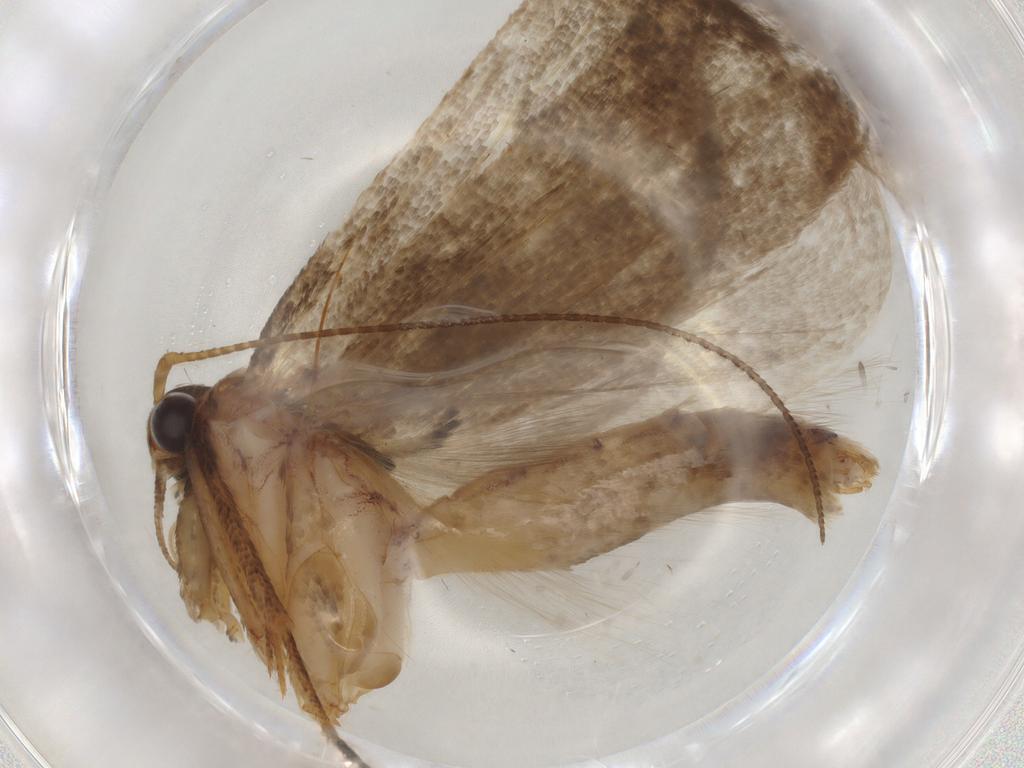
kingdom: Animalia
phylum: Arthropoda
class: Insecta
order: Lepidoptera
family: Gelechiidae
